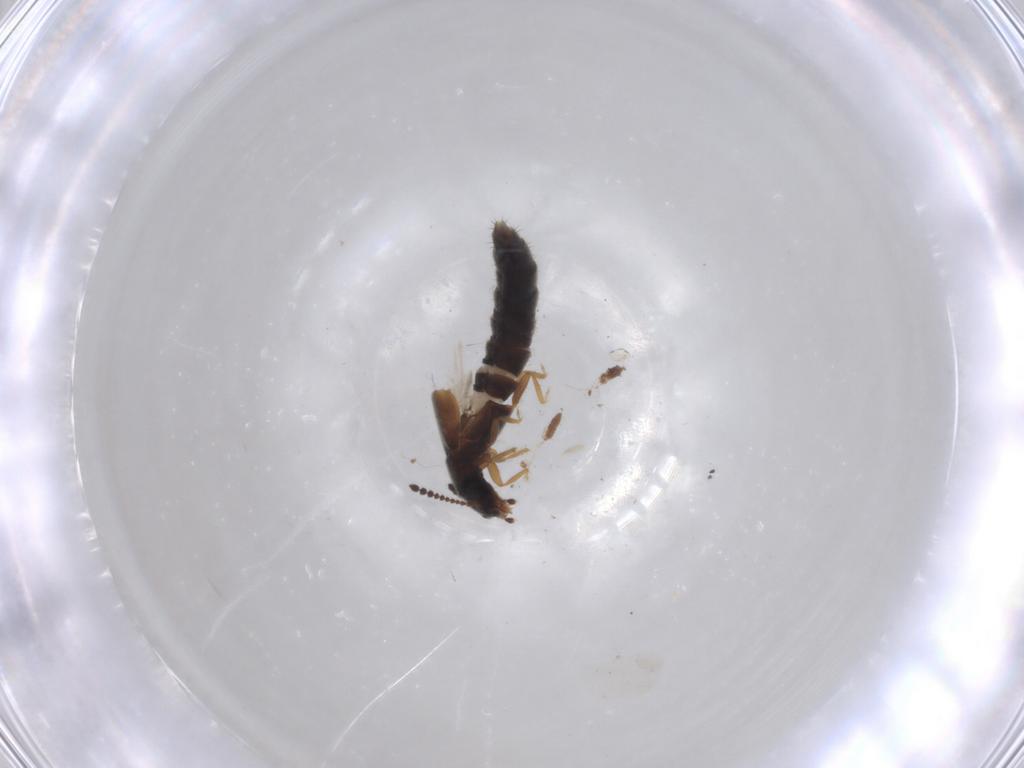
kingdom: Animalia
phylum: Arthropoda
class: Insecta
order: Coleoptera
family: Staphylinidae
